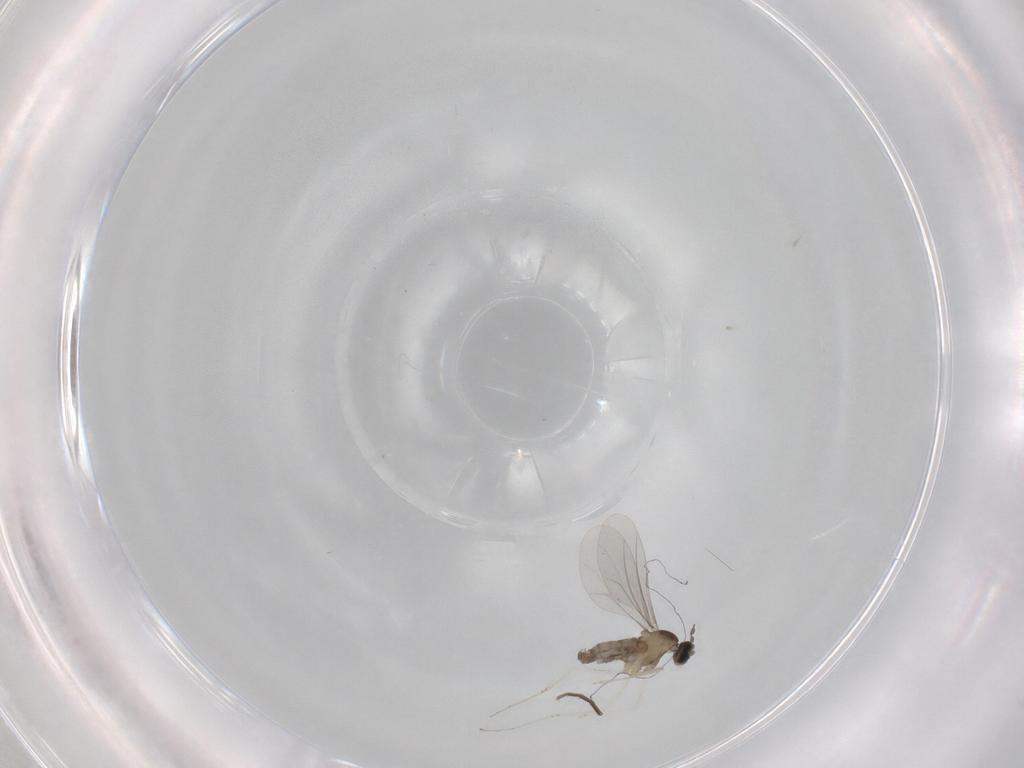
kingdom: Animalia
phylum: Arthropoda
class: Insecta
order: Diptera
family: Cecidomyiidae
